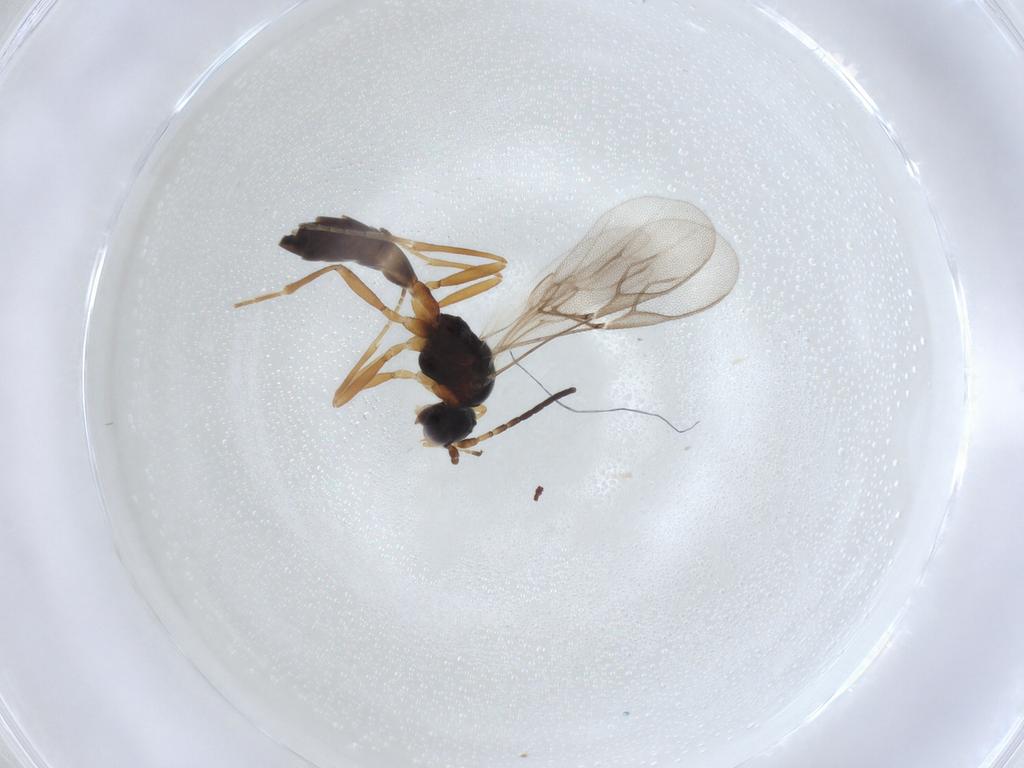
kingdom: Animalia
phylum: Arthropoda
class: Insecta
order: Hymenoptera
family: Braconidae
